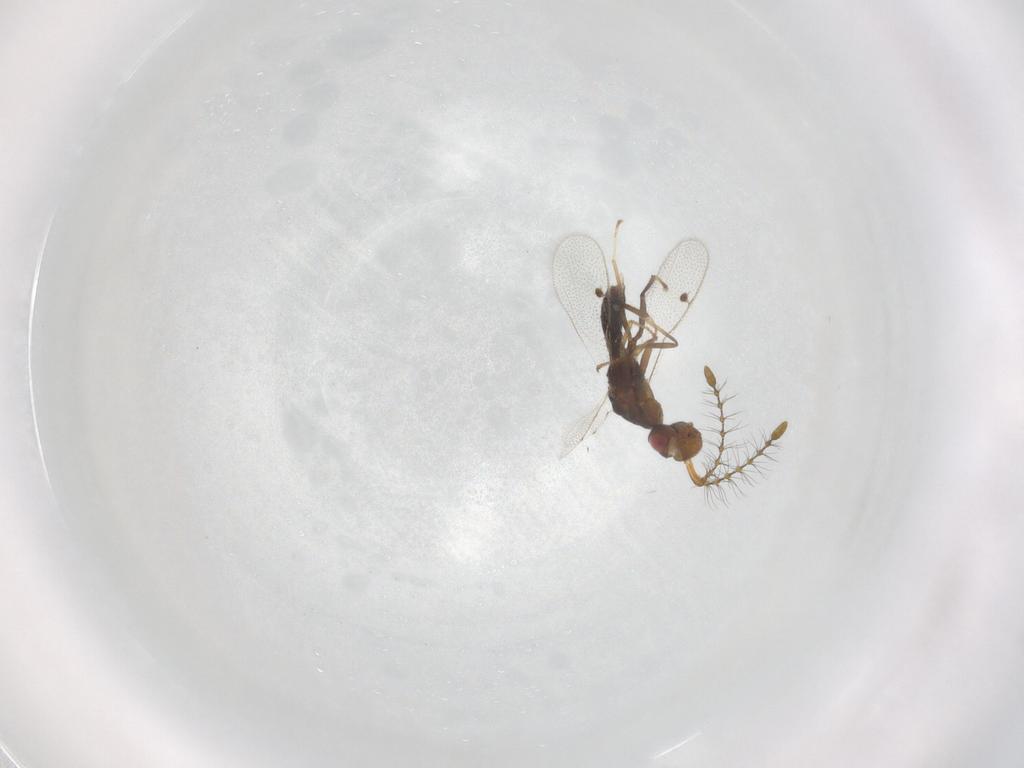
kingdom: Animalia
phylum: Arthropoda
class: Insecta
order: Hymenoptera
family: Megastigmidae
